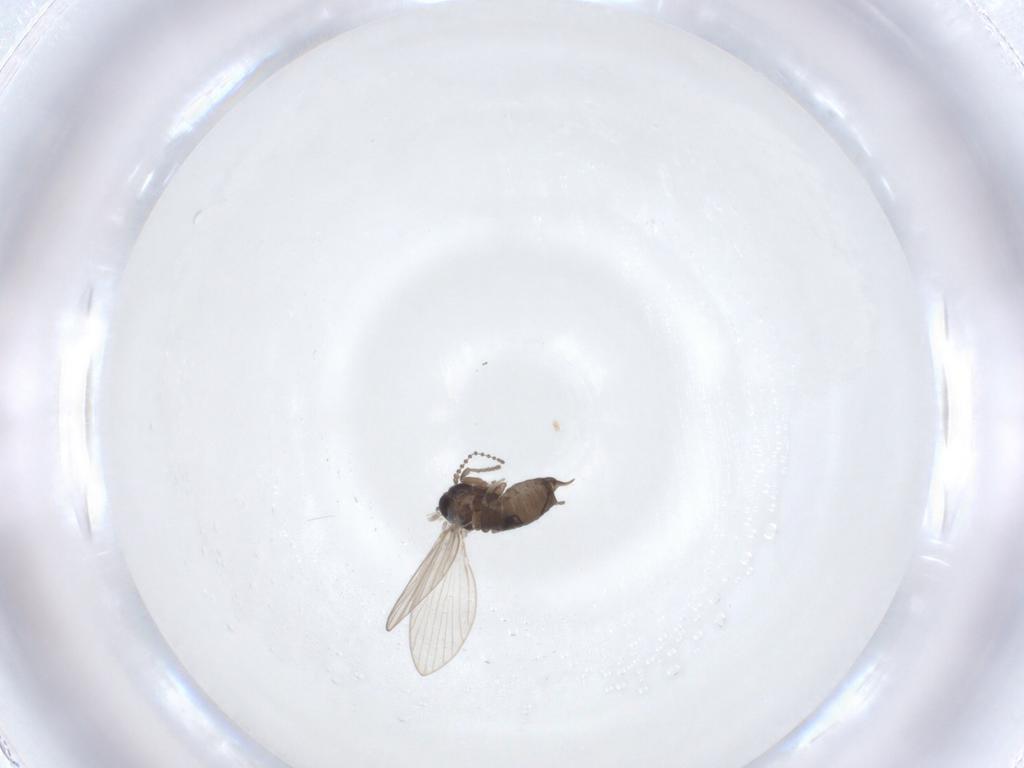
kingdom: Animalia
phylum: Arthropoda
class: Insecta
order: Diptera
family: Psychodidae
